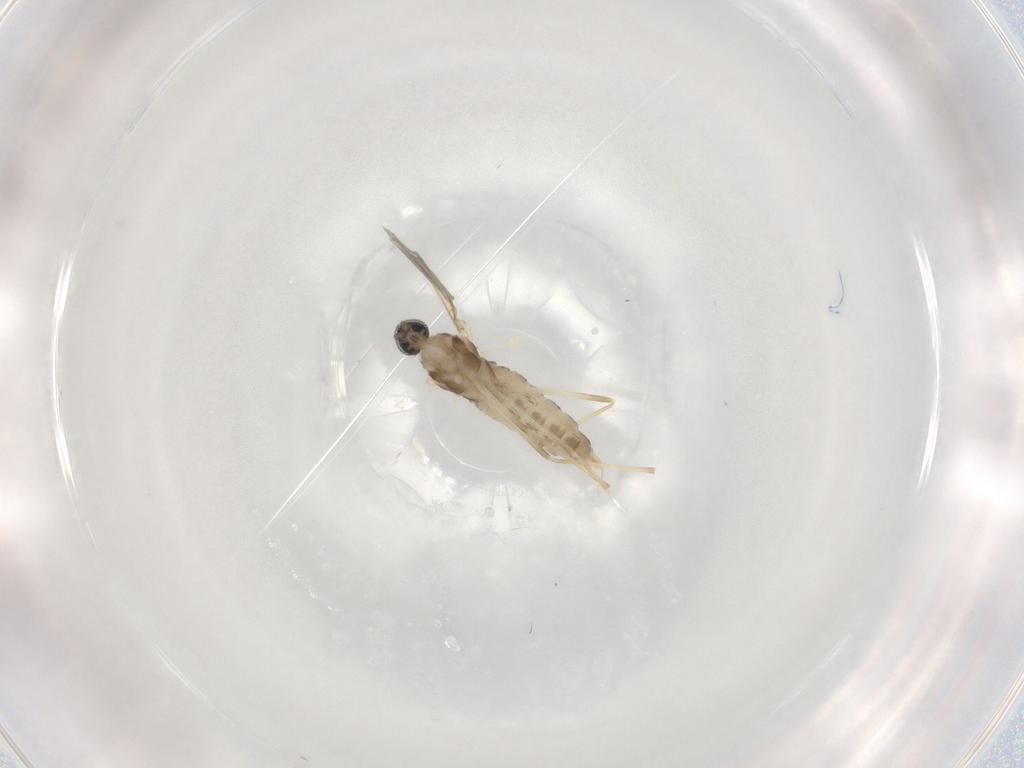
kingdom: Animalia
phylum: Arthropoda
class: Insecta
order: Diptera
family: Cecidomyiidae
